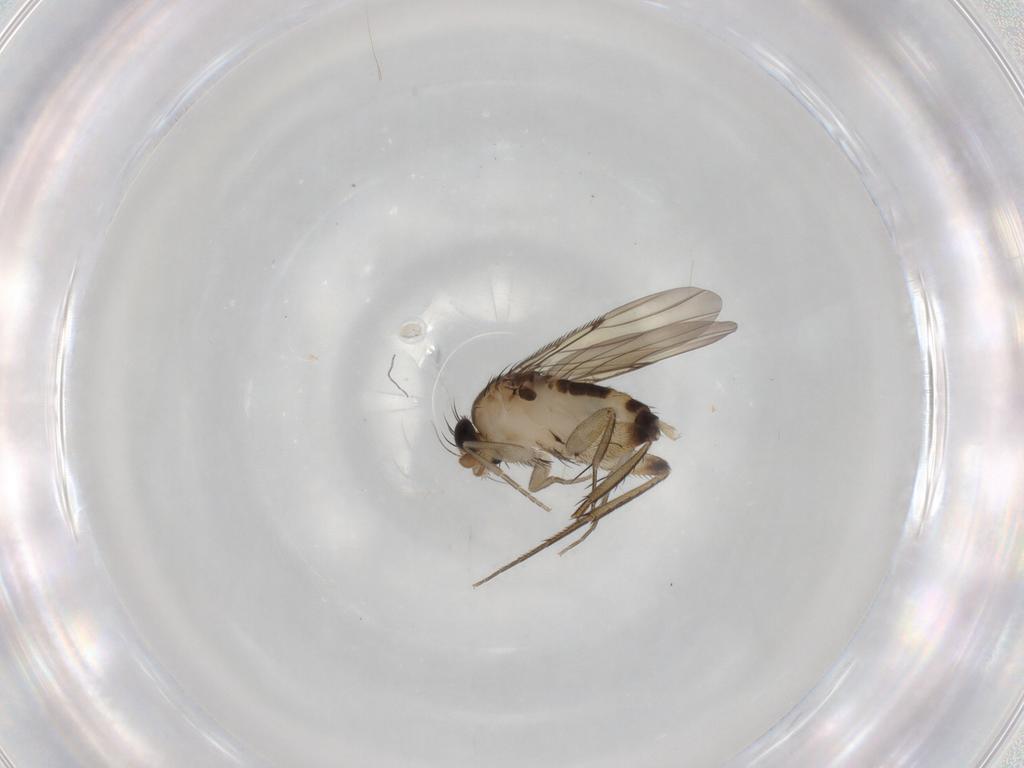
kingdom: Animalia
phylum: Arthropoda
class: Insecta
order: Diptera
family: Phoridae
